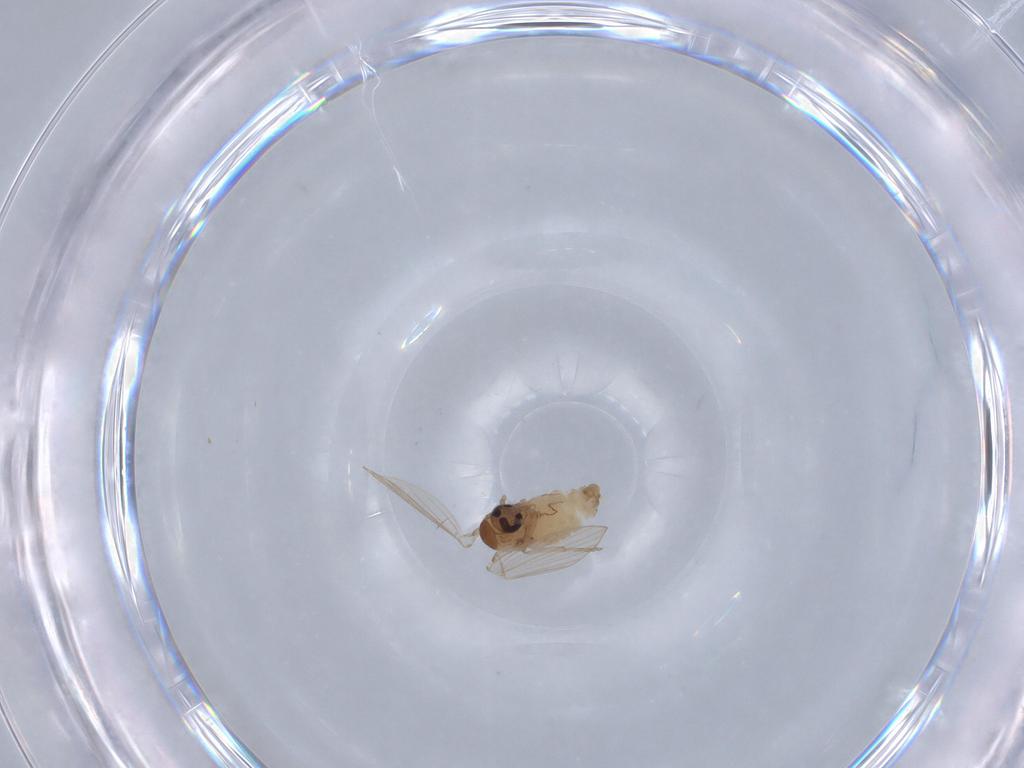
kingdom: Animalia
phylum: Arthropoda
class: Insecta
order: Diptera
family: Psychodidae
